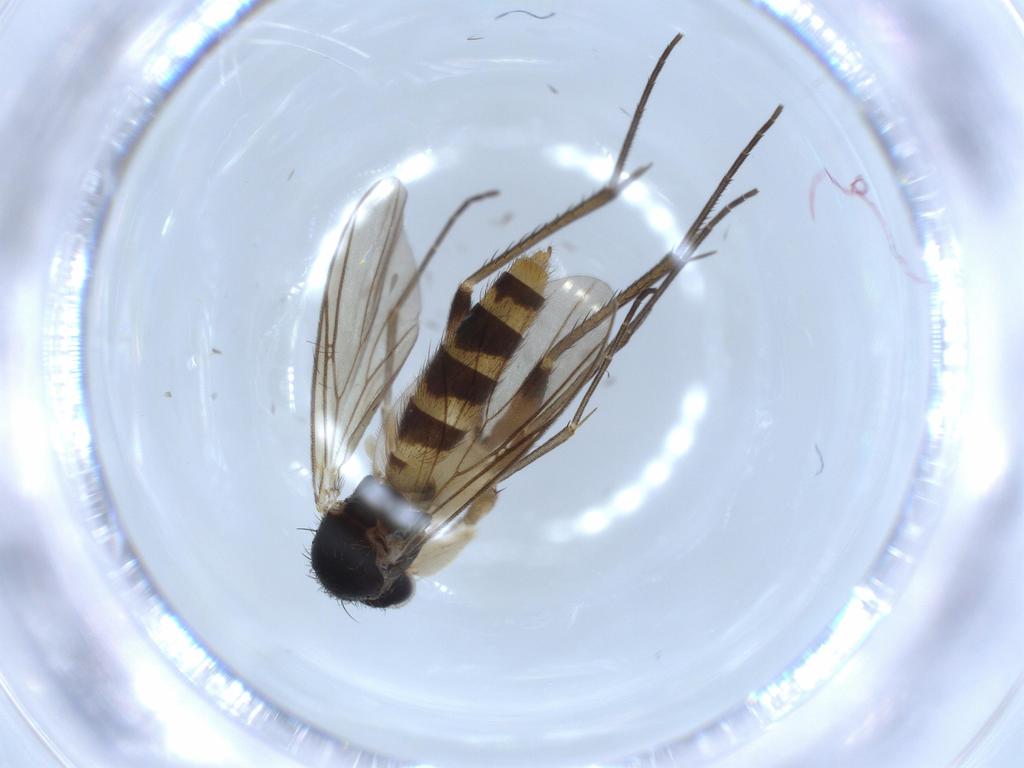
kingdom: Animalia
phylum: Arthropoda
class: Insecta
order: Diptera
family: Mycetophilidae
